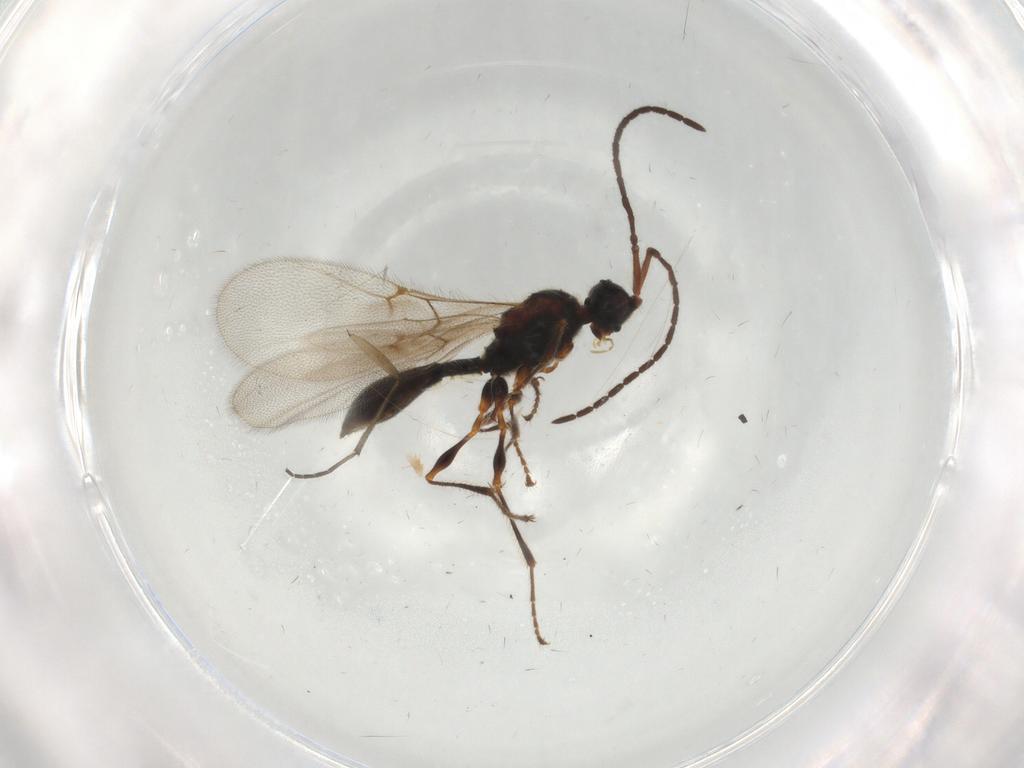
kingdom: Animalia
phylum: Arthropoda
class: Insecta
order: Hymenoptera
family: Diapriidae
